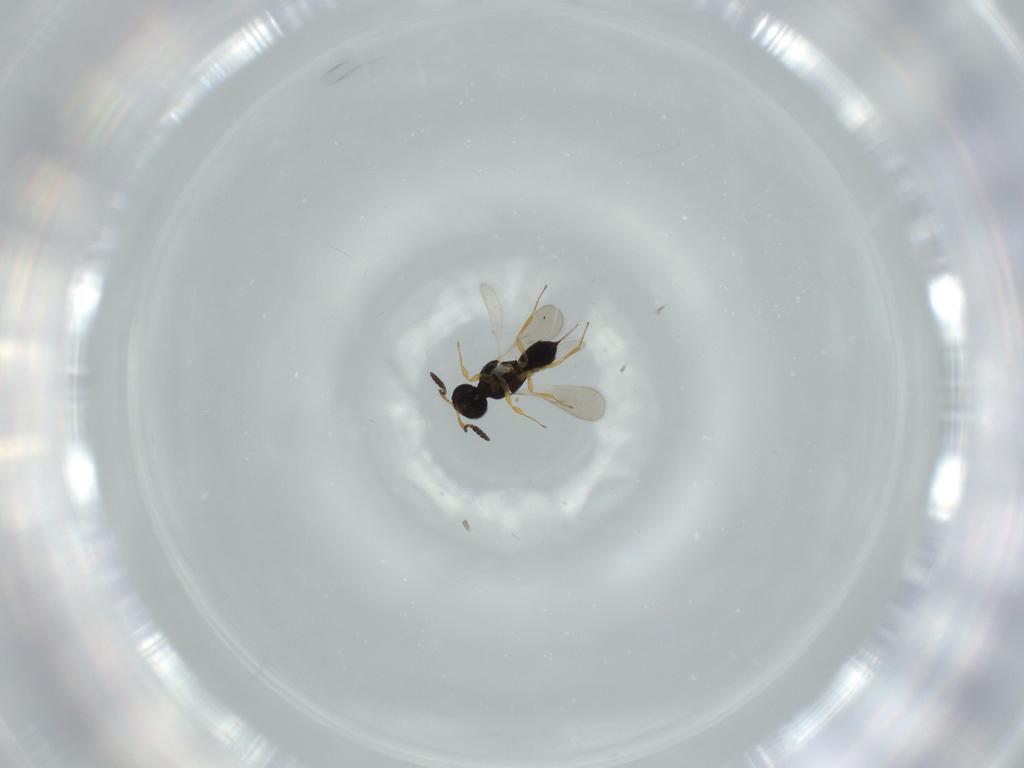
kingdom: Animalia
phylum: Arthropoda
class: Insecta
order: Hymenoptera
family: Scelionidae
